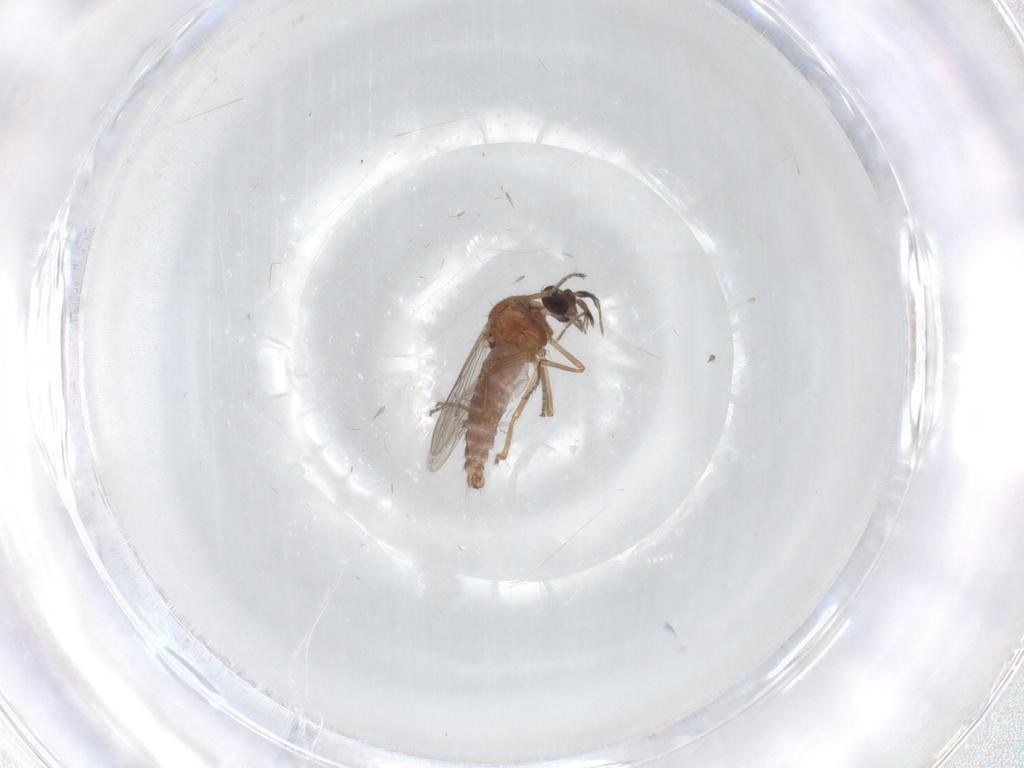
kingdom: Animalia
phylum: Arthropoda
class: Insecta
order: Diptera
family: Ceratopogonidae
